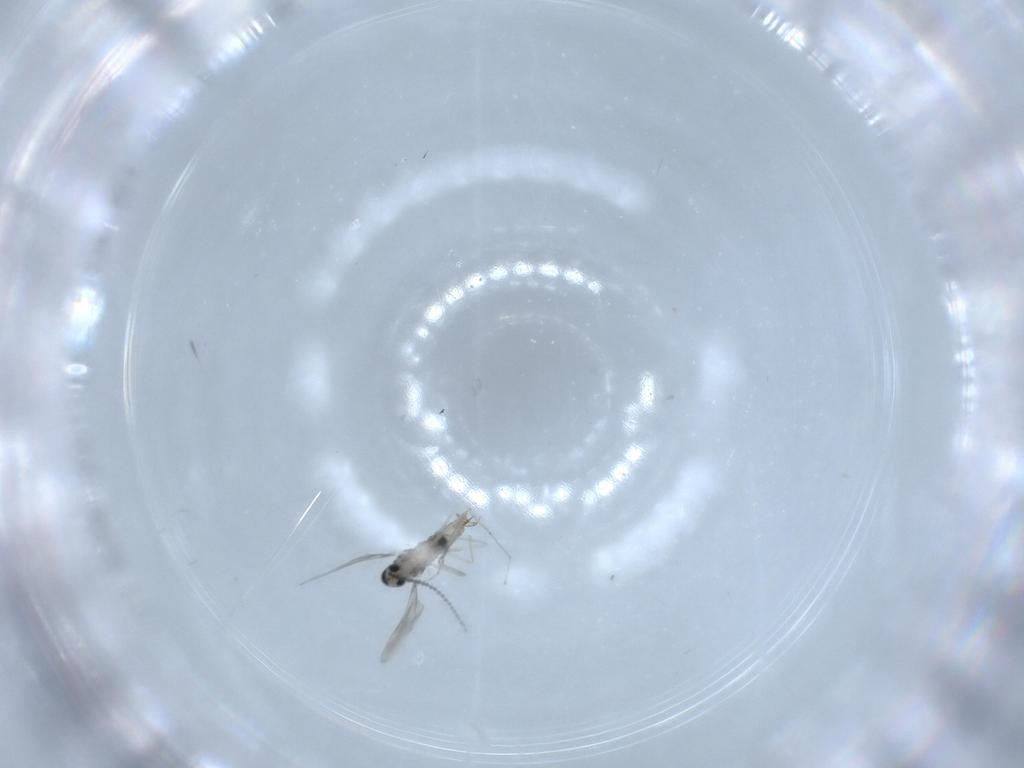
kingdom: Animalia
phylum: Arthropoda
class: Insecta
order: Diptera
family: Cecidomyiidae
